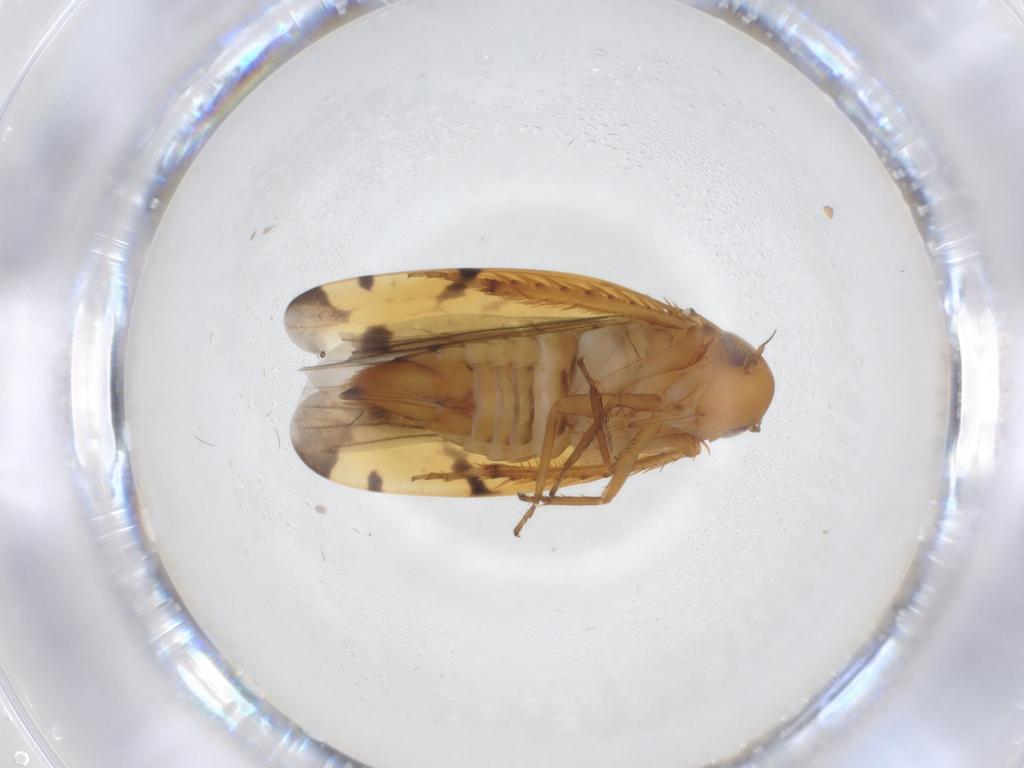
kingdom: Animalia
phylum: Arthropoda
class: Insecta
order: Hemiptera
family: Cicadellidae
